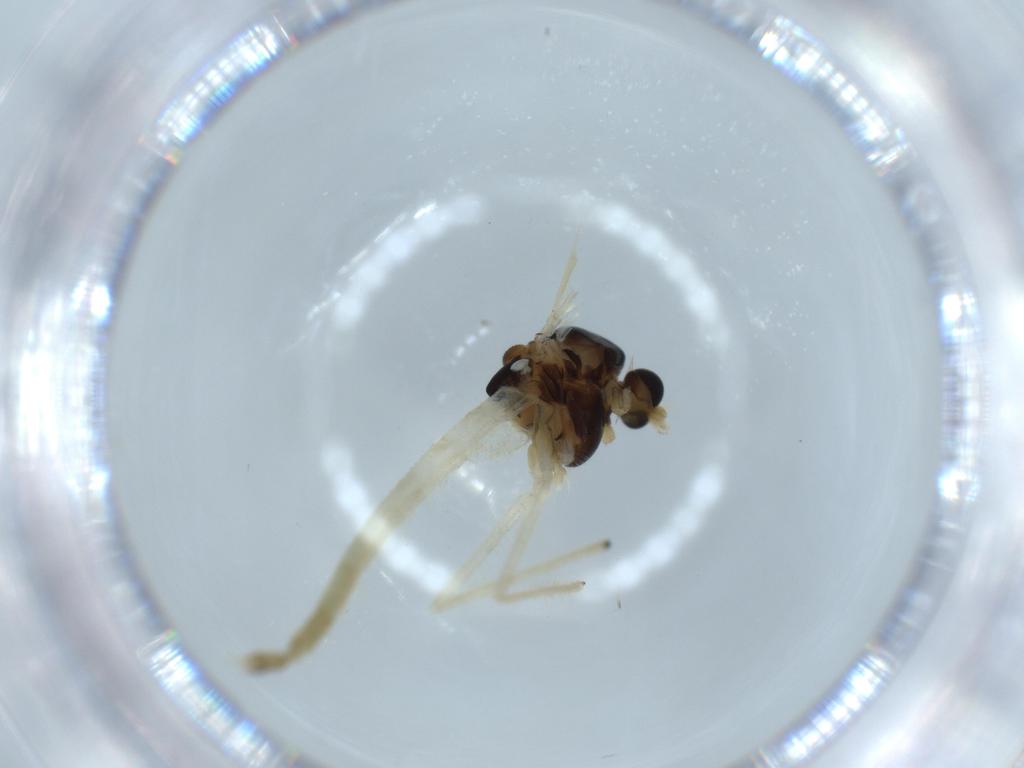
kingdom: Animalia
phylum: Arthropoda
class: Insecta
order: Diptera
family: Chironomidae
